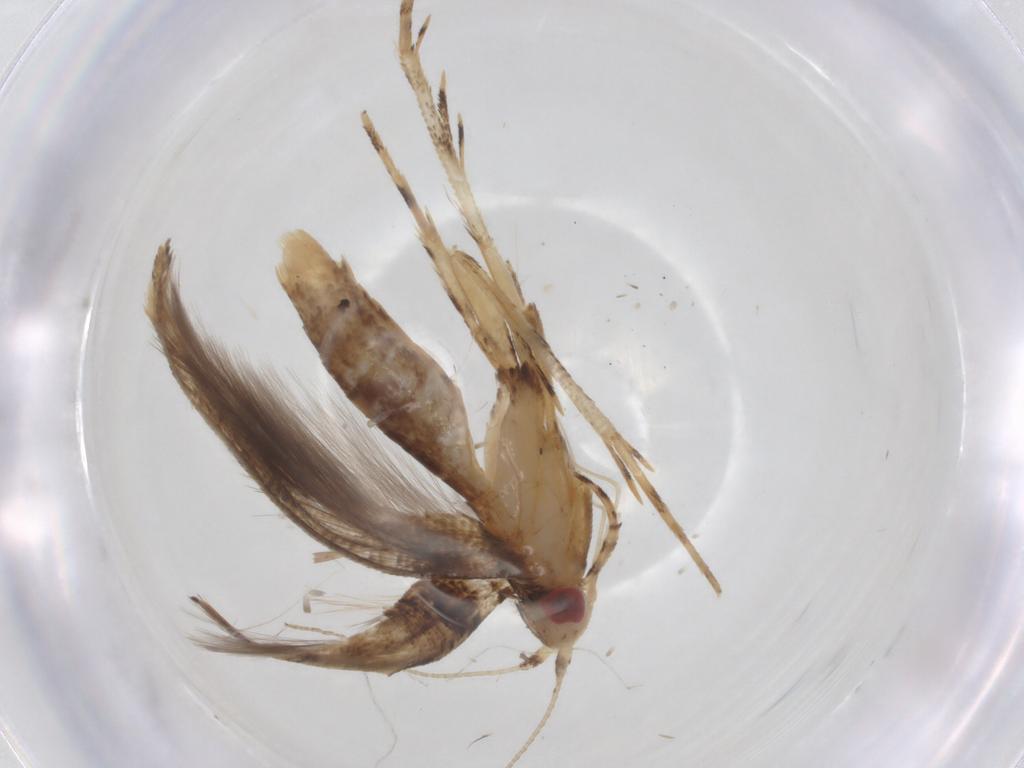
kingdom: Animalia
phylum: Arthropoda
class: Insecta
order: Lepidoptera
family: Cosmopterigidae
